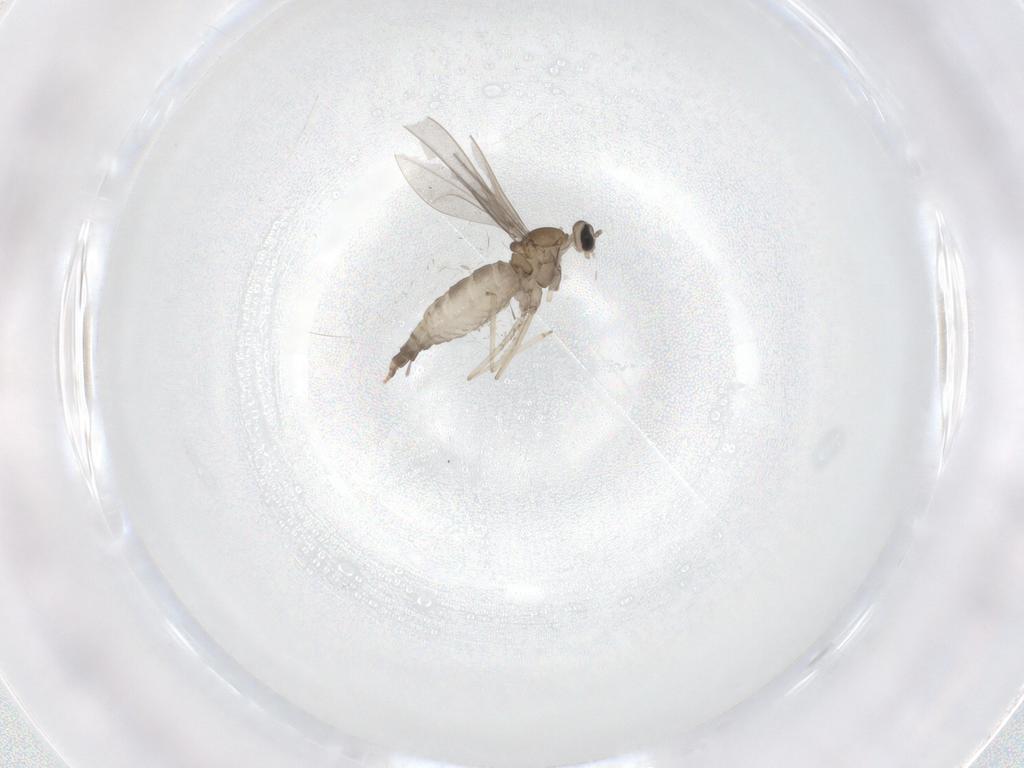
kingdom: Animalia
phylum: Arthropoda
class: Insecta
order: Diptera
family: Cecidomyiidae
